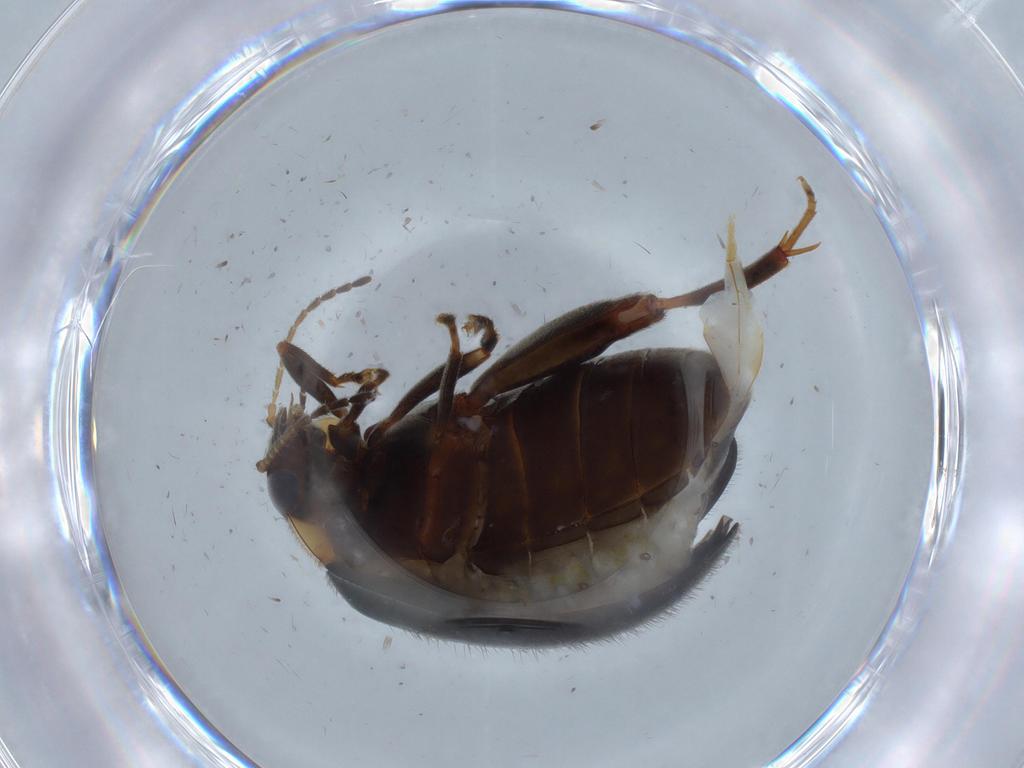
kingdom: Animalia
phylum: Arthropoda
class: Insecta
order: Coleoptera
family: Scirtidae
